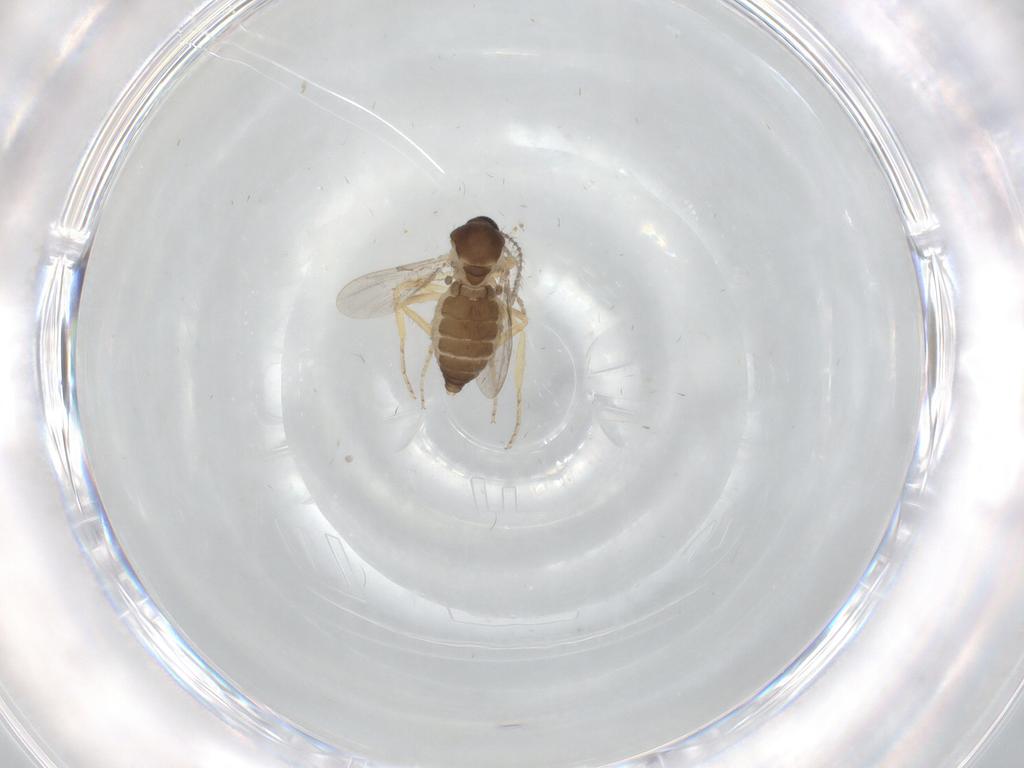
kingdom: Animalia
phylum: Arthropoda
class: Insecta
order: Diptera
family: Ceratopogonidae
